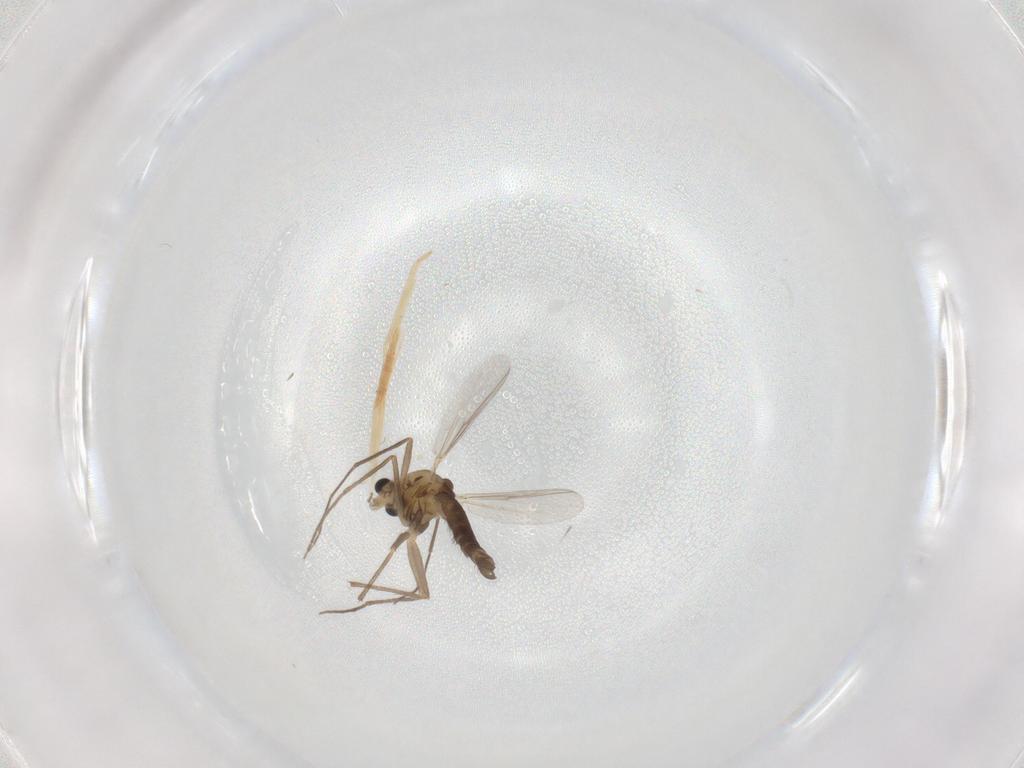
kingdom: Animalia
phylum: Arthropoda
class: Insecta
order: Diptera
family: Chironomidae
